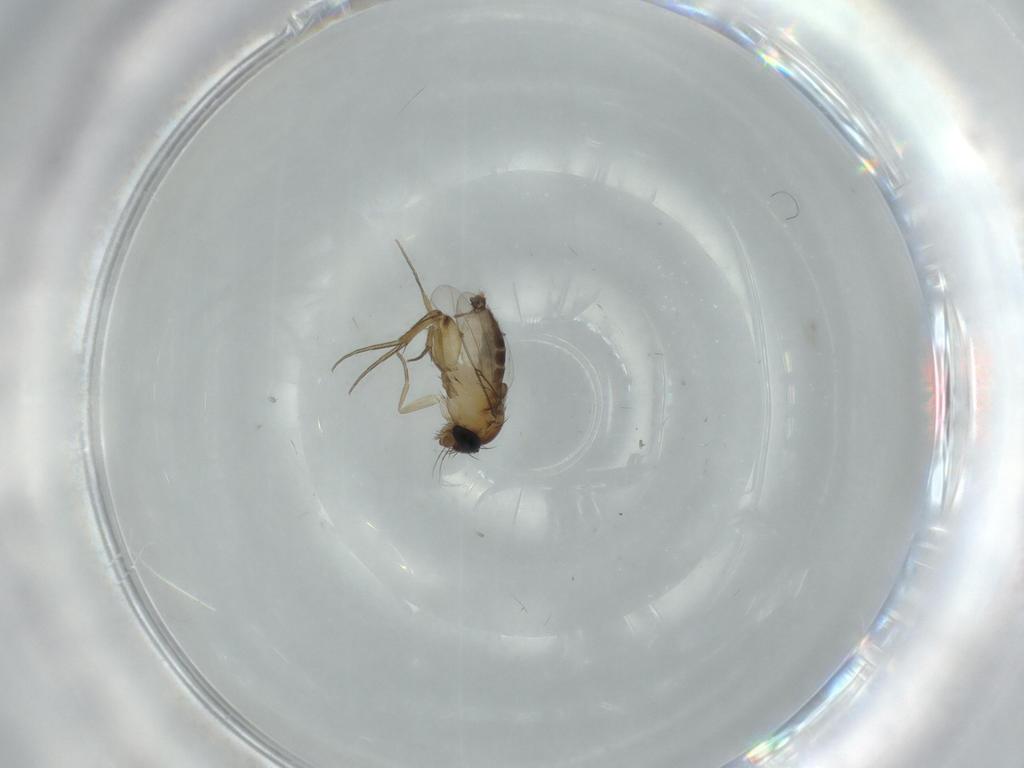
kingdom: Animalia
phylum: Arthropoda
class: Insecta
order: Diptera
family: Phoridae
